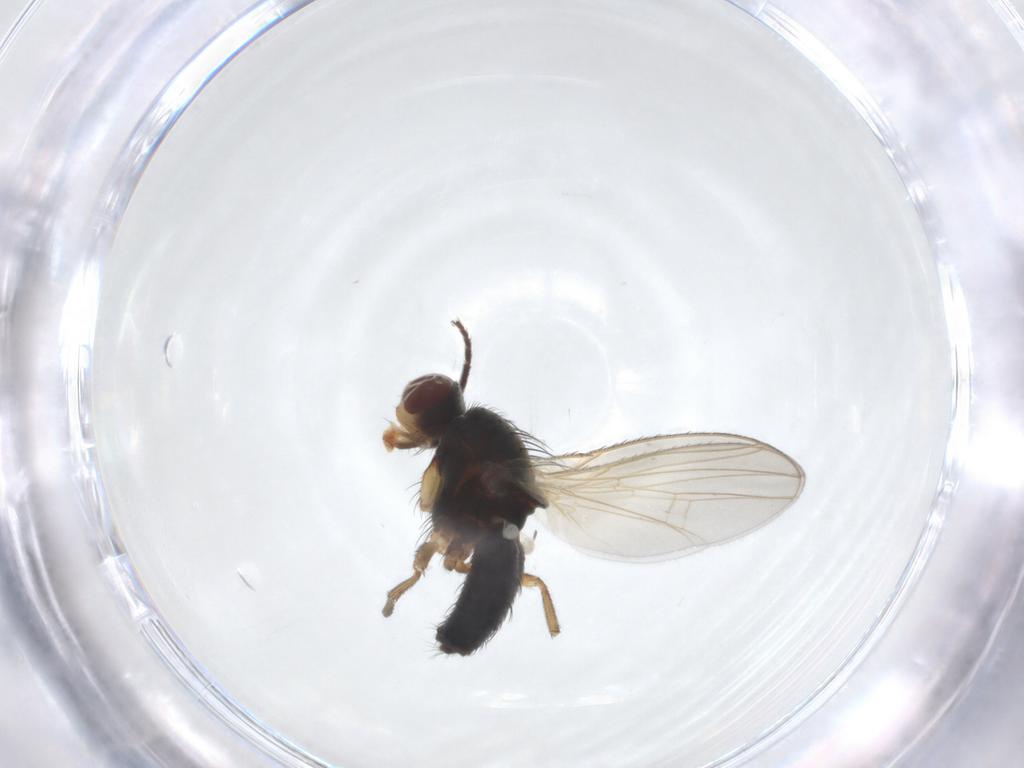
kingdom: Animalia
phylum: Arthropoda
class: Insecta
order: Diptera
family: Heleomyzidae
